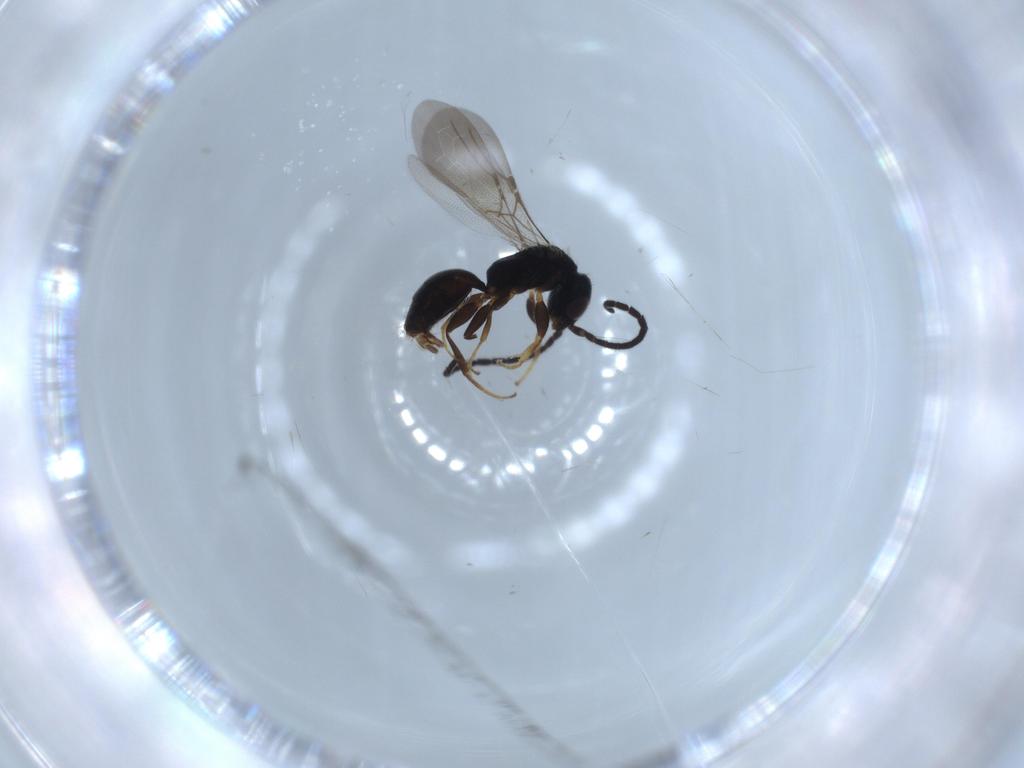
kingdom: Animalia
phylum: Arthropoda
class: Insecta
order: Hymenoptera
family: Bethylidae
